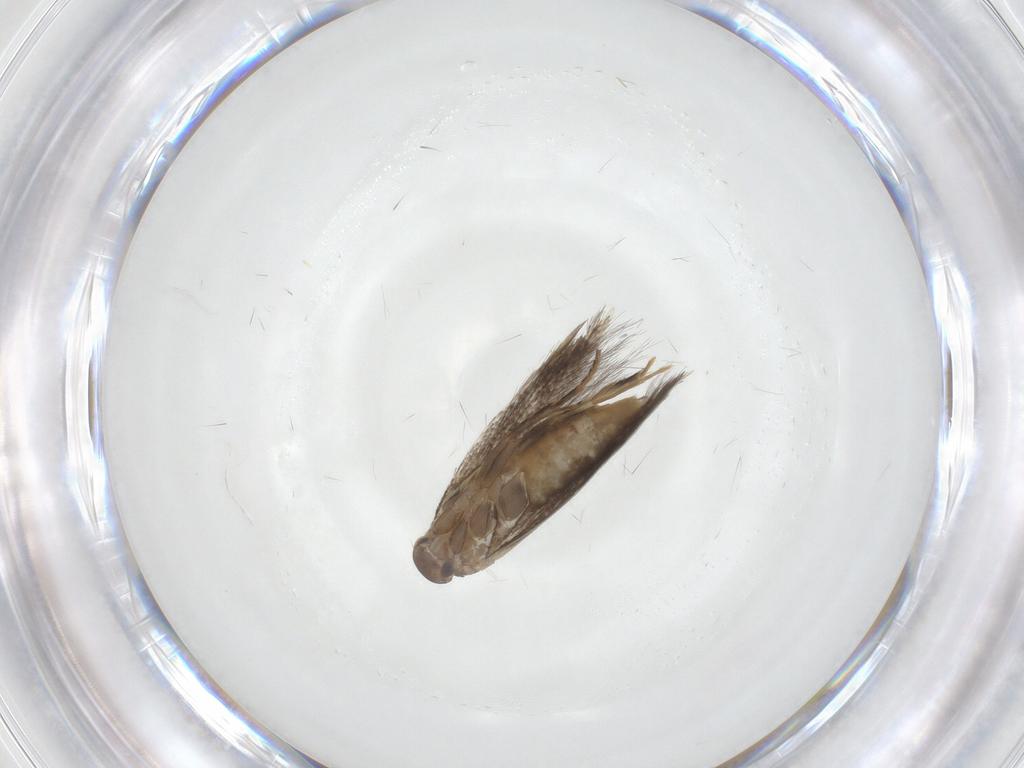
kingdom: Animalia
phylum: Arthropoda
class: Insecta
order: Lepidoptera
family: Elachistidae
